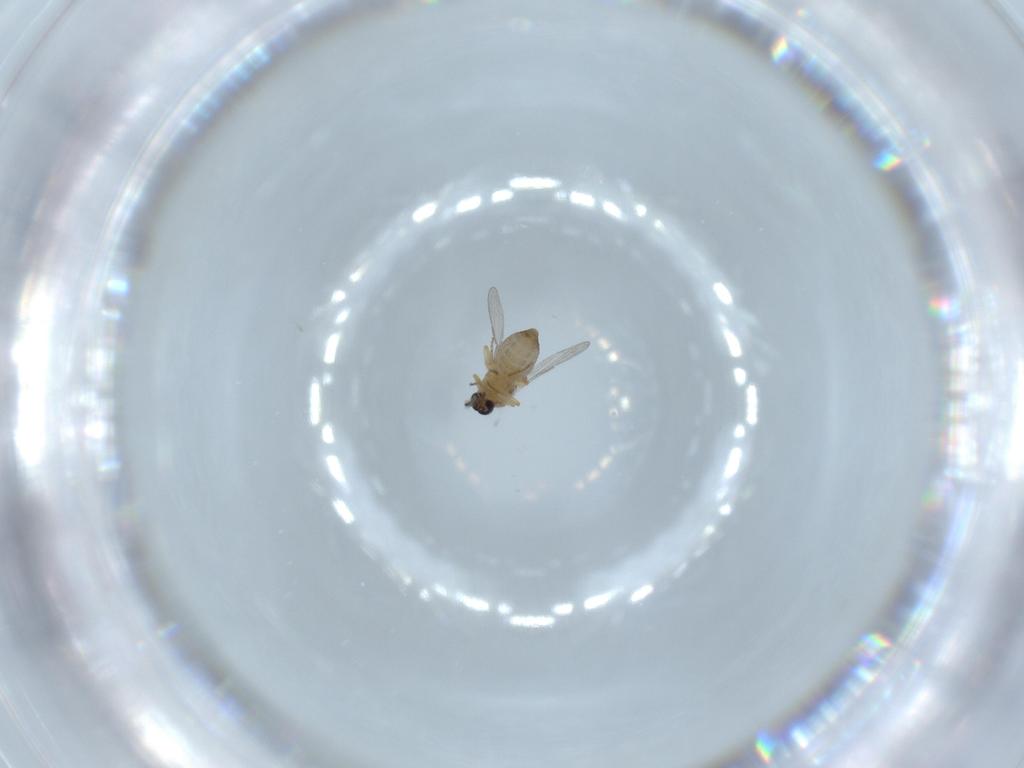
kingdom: Animalia
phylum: Arthropoda
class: Insecta
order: Diptera
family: Ceratopogonidae
